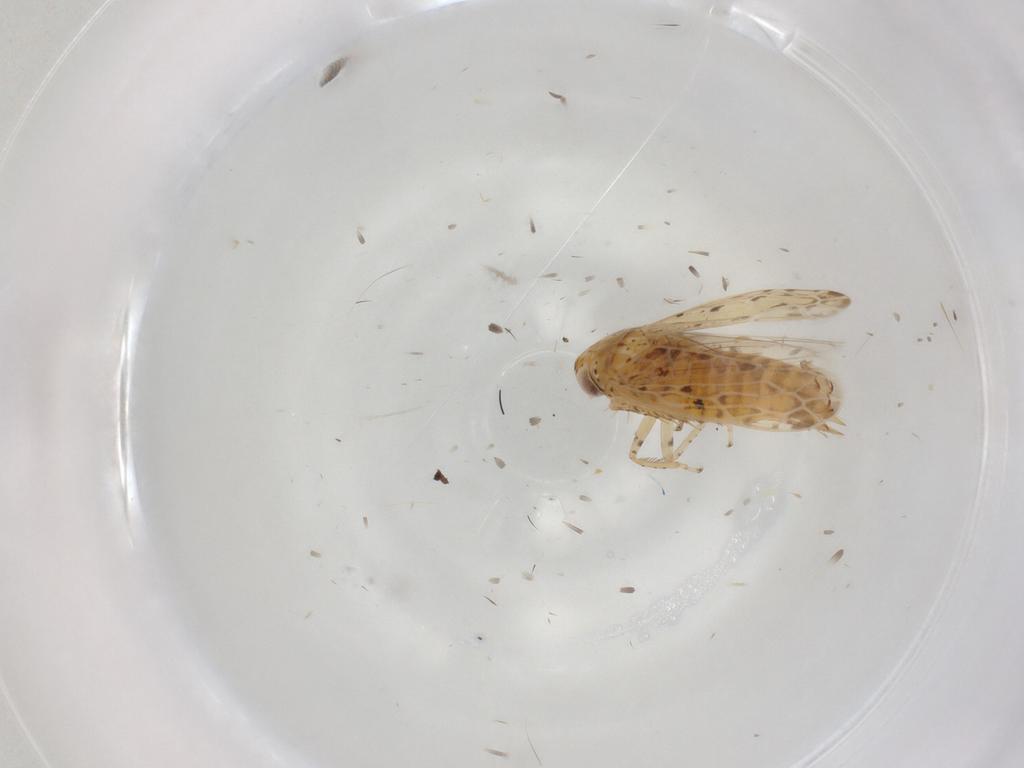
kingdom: Animalia
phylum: Arthropoda
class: Insecta
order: Hemiptera
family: Cicadellidae
